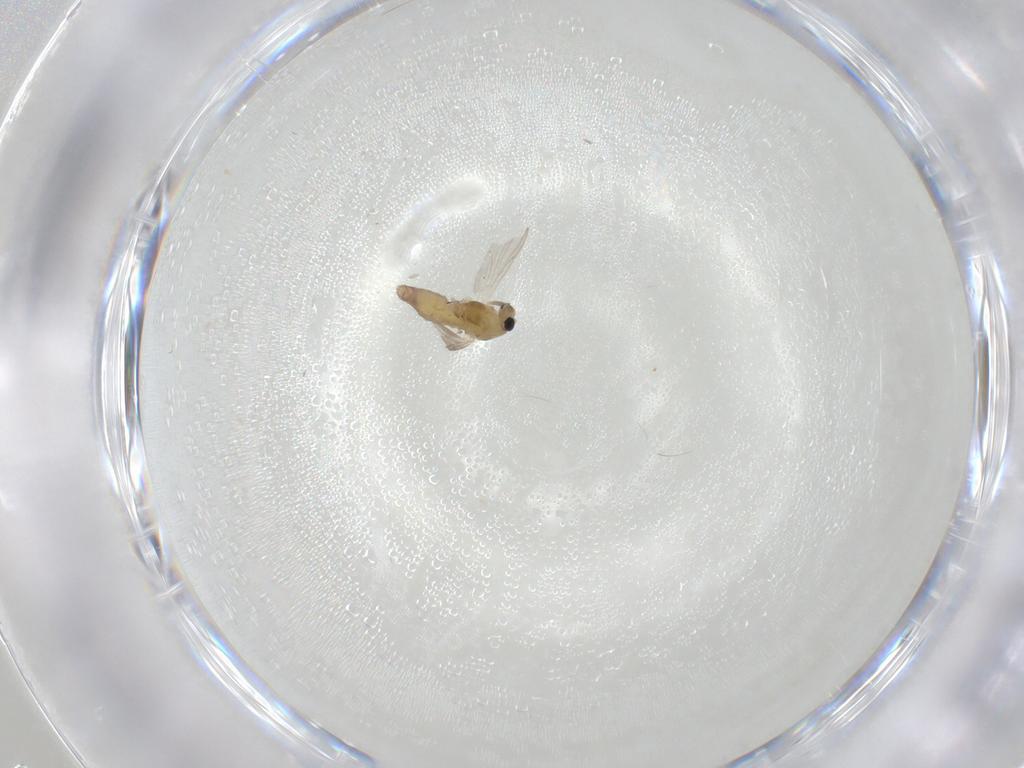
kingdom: Animalia
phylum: Arthropoda
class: Insecta
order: Diptera
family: Chironomidae
